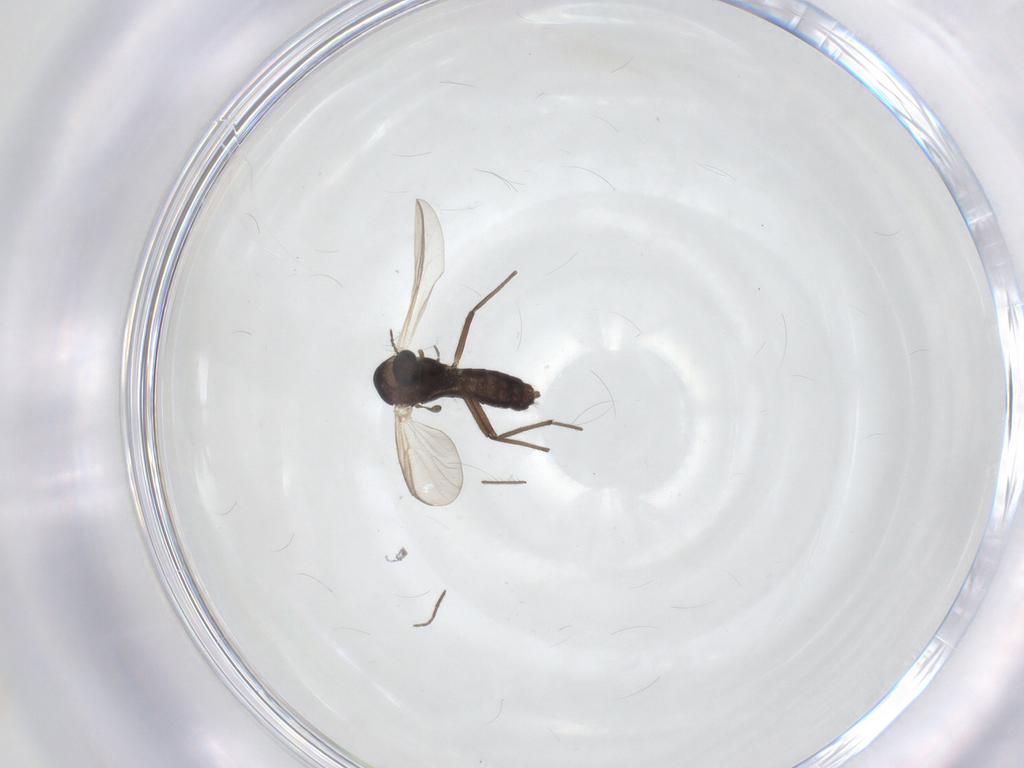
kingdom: Animalia
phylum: Arthropoda
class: Insecta
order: Diptera
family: Chironomidae
